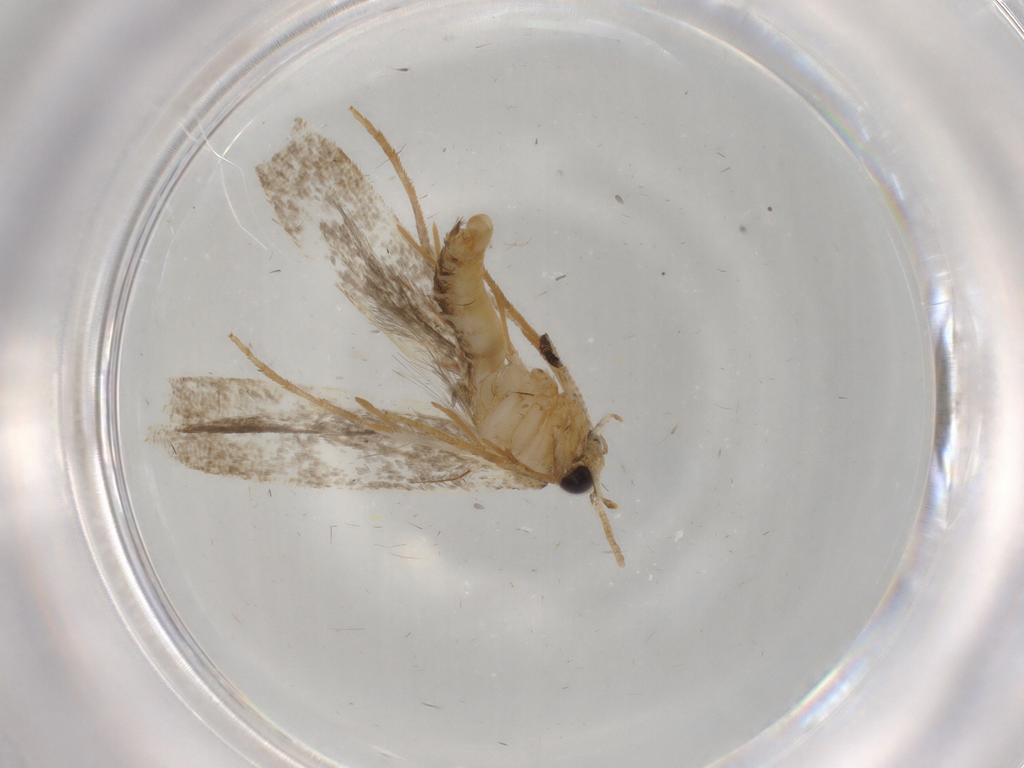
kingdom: Animalia
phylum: Arthropoda
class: Insecta
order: Lepidoptera
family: Tineidae
